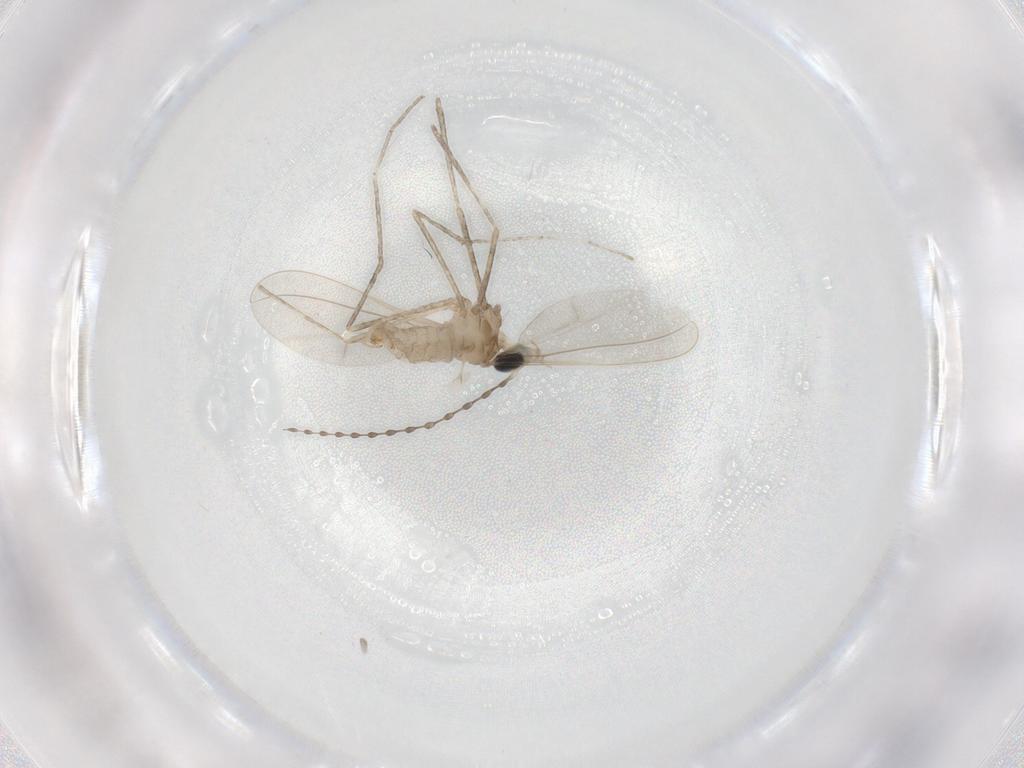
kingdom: Animalia
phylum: Arthropoda
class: Insecta
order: Diptera
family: Cecidomyiidae
